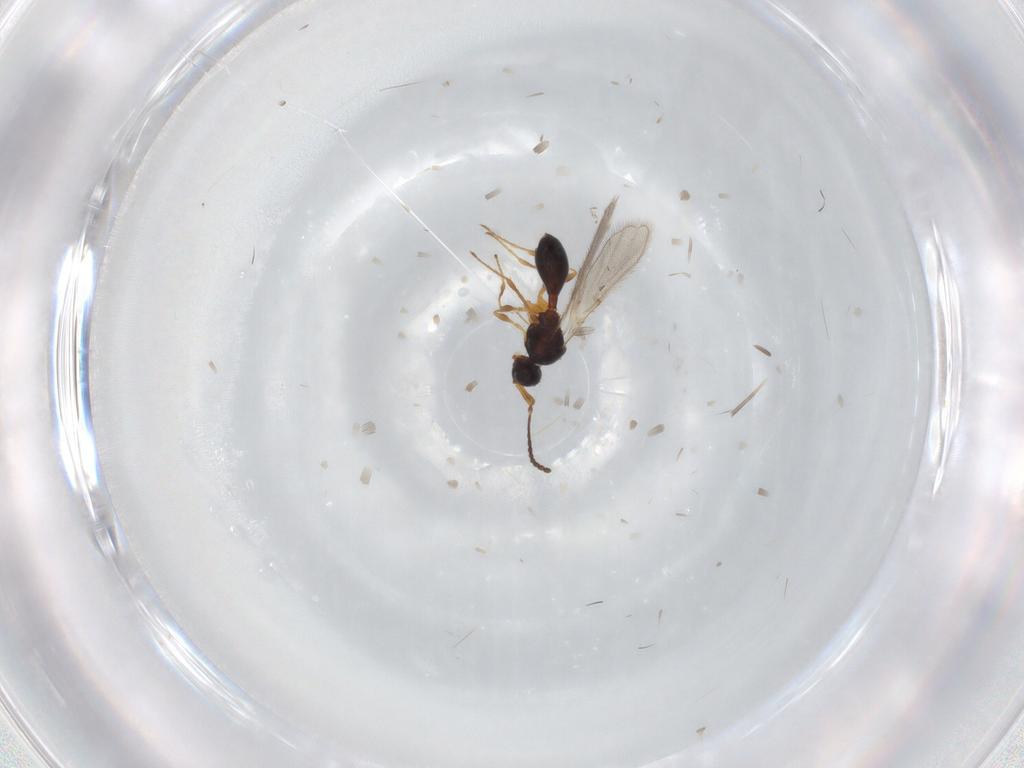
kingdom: Animalia
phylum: Arthropoda
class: Insecta
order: Hymenoptera
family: Diapriidae
